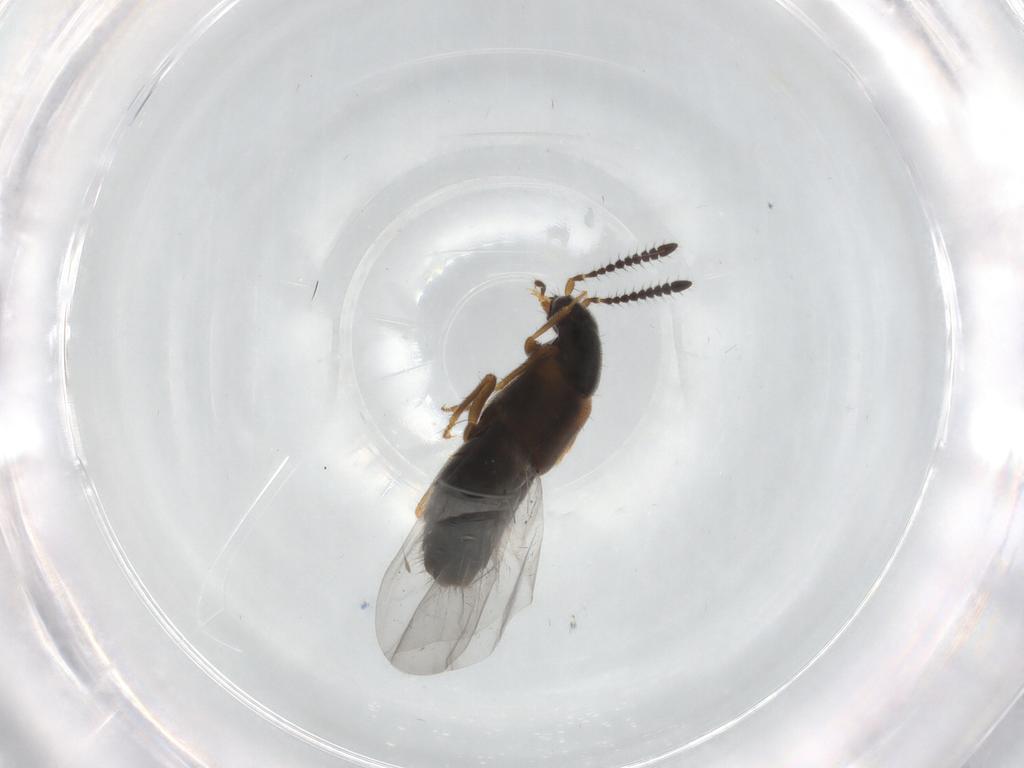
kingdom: Animalia
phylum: Arthropoda
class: Insecta
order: Coleoptera
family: Staphylinidae
